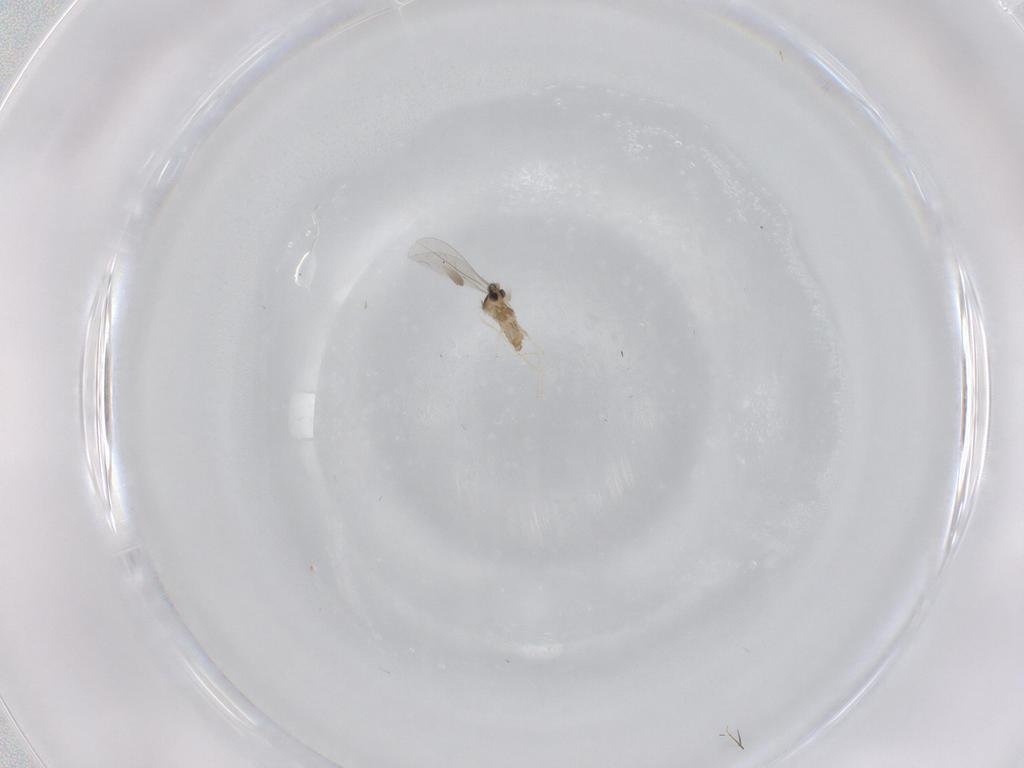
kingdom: Animalia
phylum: Arthropoda
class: Insecta
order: Diptera
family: Cecidomyiidae
